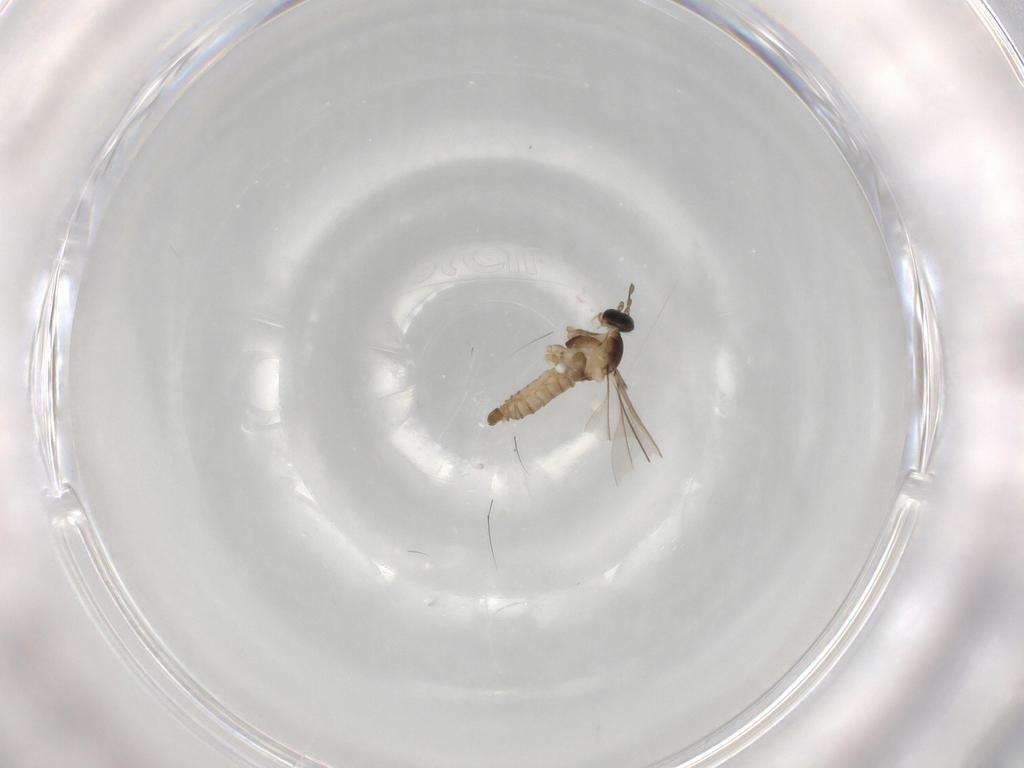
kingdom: Animalia
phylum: Arthropoda
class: Insecta
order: Diptera
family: Cecidomyiidae
